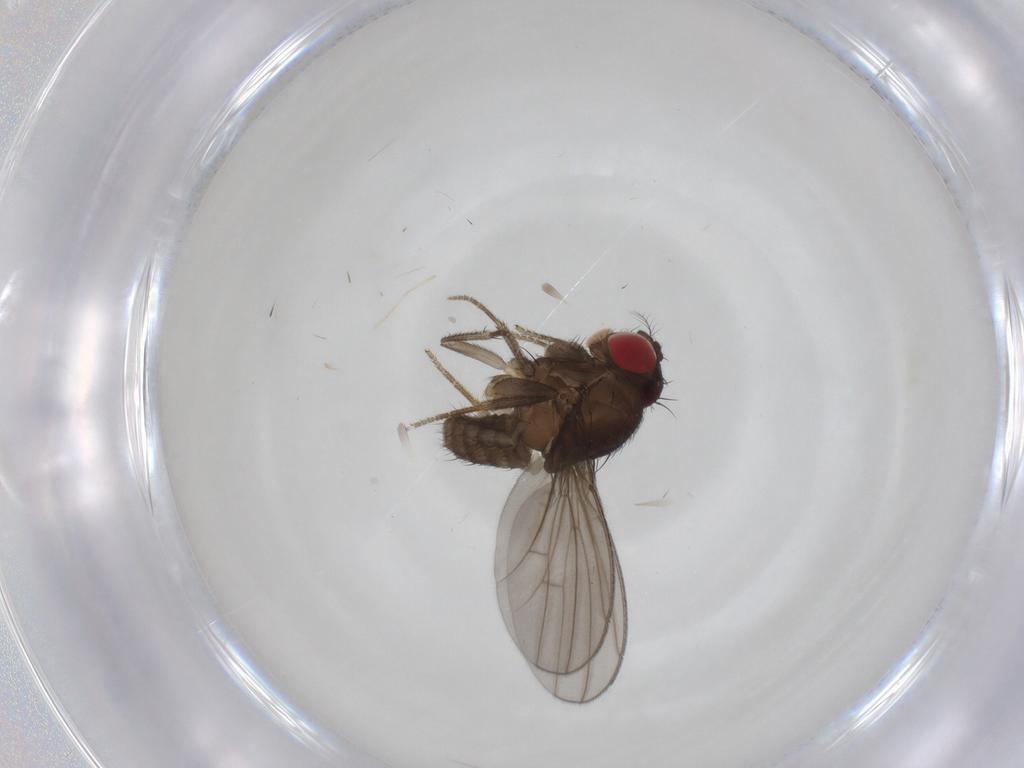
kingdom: Animalia
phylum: Arthropoda
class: Insecta
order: Diptera
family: Drosophilidae
